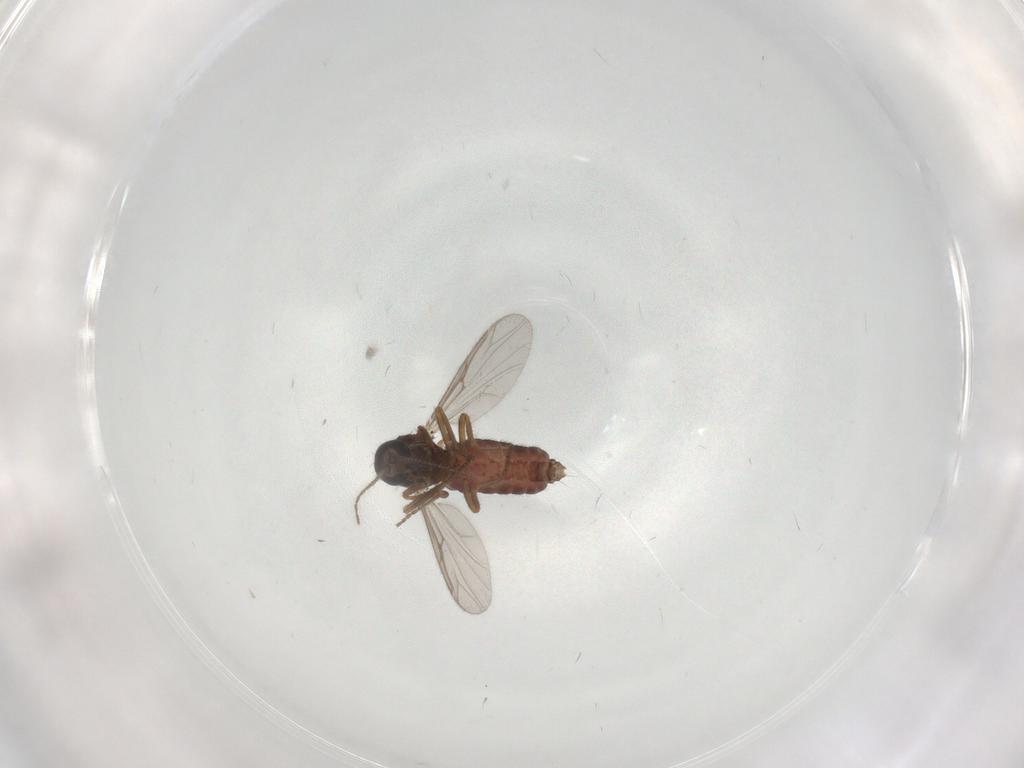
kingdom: Animalia
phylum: Arthropoda
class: Insecta
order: Diptera
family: Ceratopogonidae
